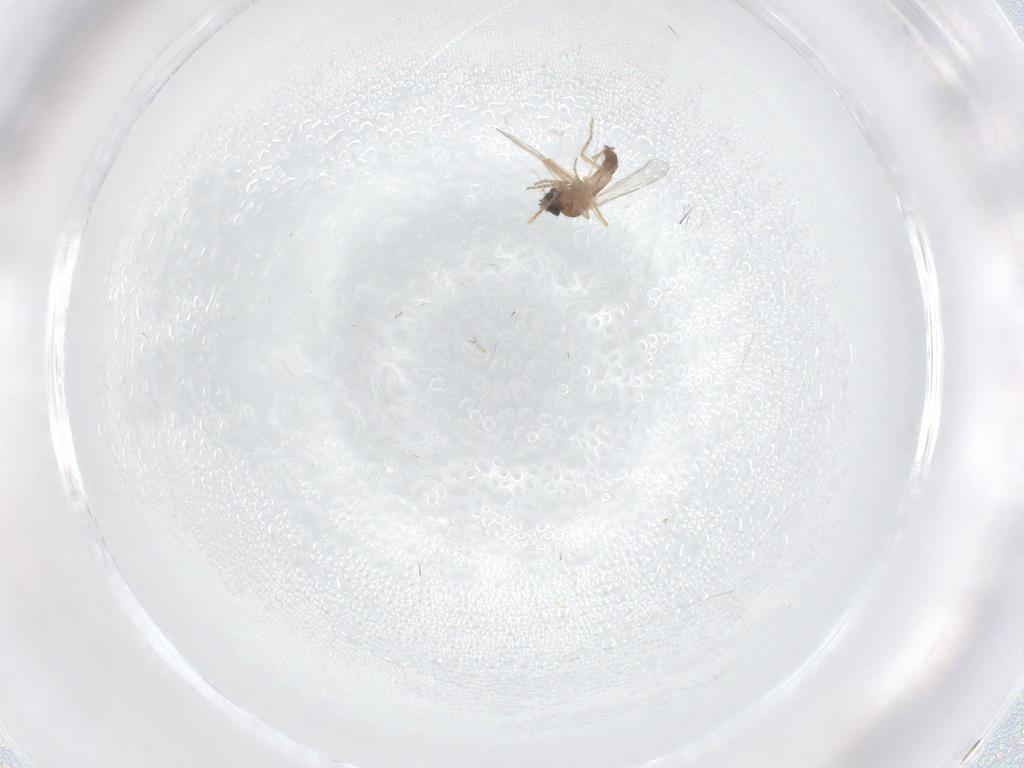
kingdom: Animalia
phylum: Arthropoda
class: Insecta
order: Diptera
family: Ceratopogonidae
